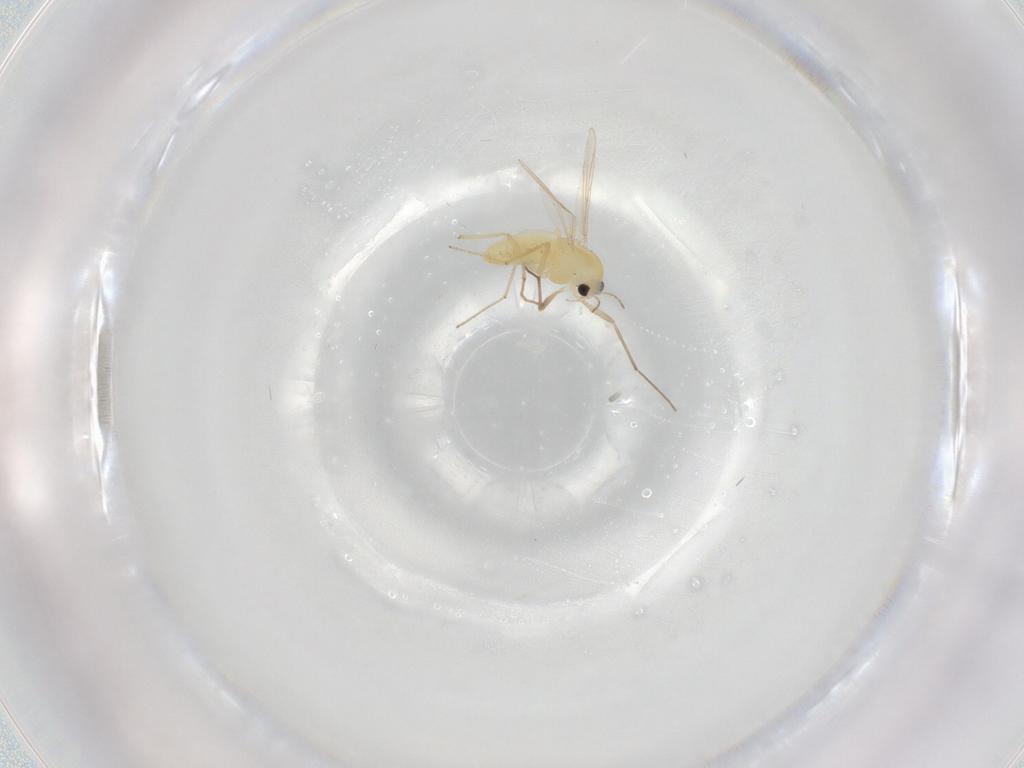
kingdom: Animalia
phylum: Arthropoda
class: Insecta
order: Diptera
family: Chironomidae
